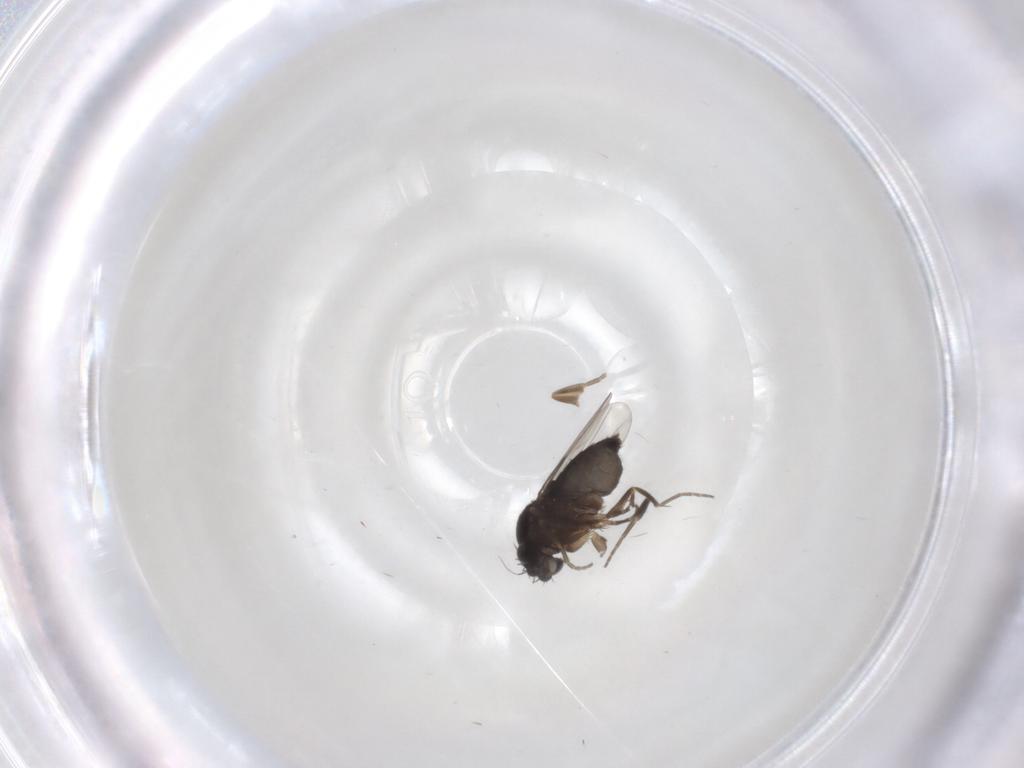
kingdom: Animalia
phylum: Arthropoda
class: Insecta
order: Diptera
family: Phoridae
